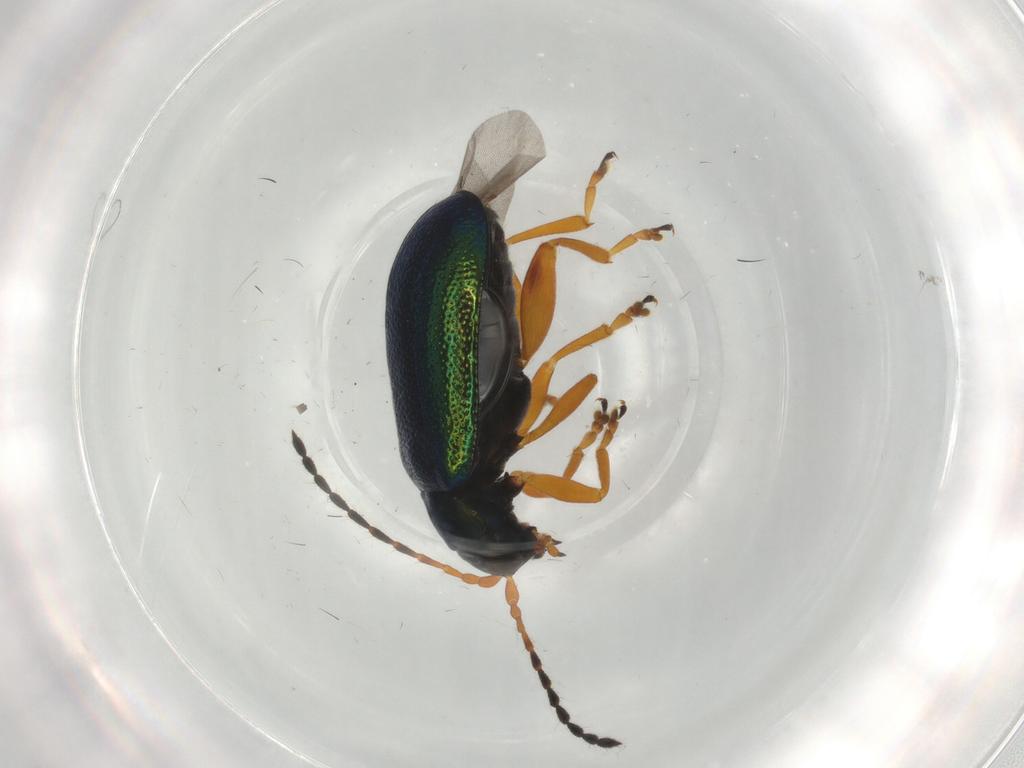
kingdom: Animalia
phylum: Arthropoda
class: Insecta
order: Coleoptera
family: Chrysomelidae
